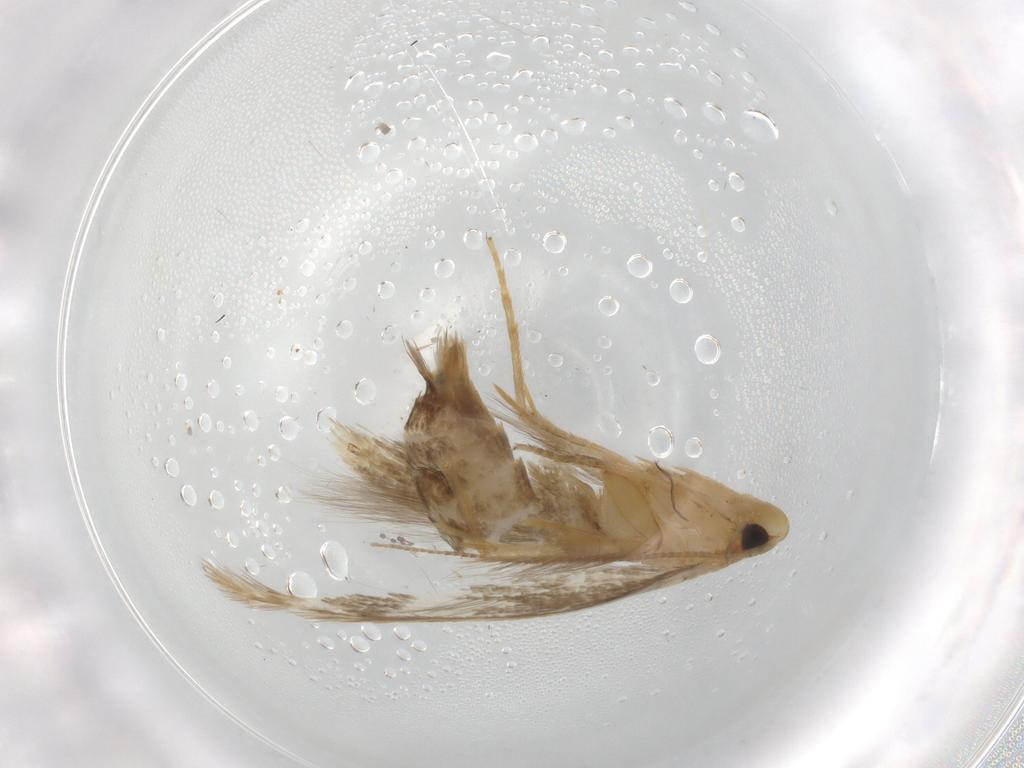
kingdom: Animalia
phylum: Arthropoda
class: Insecta
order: Lepidoptera
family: Tineidae
